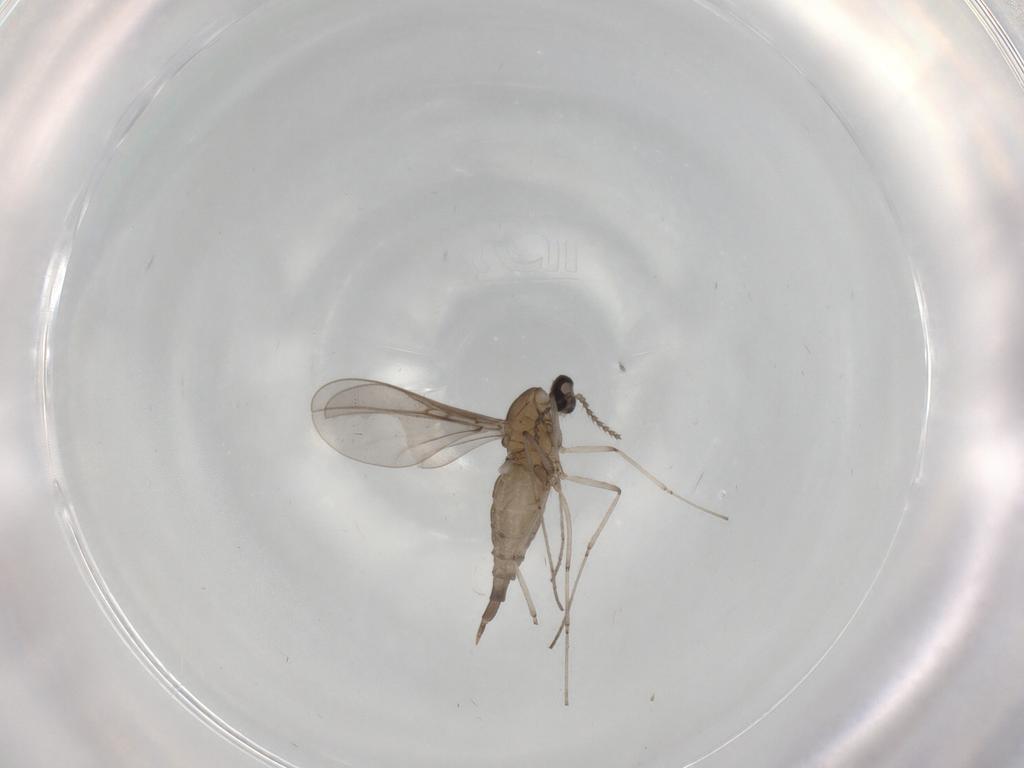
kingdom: Animalia
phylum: Arthropoda
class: Insecta
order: Diptera
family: Cecidomyiidae
